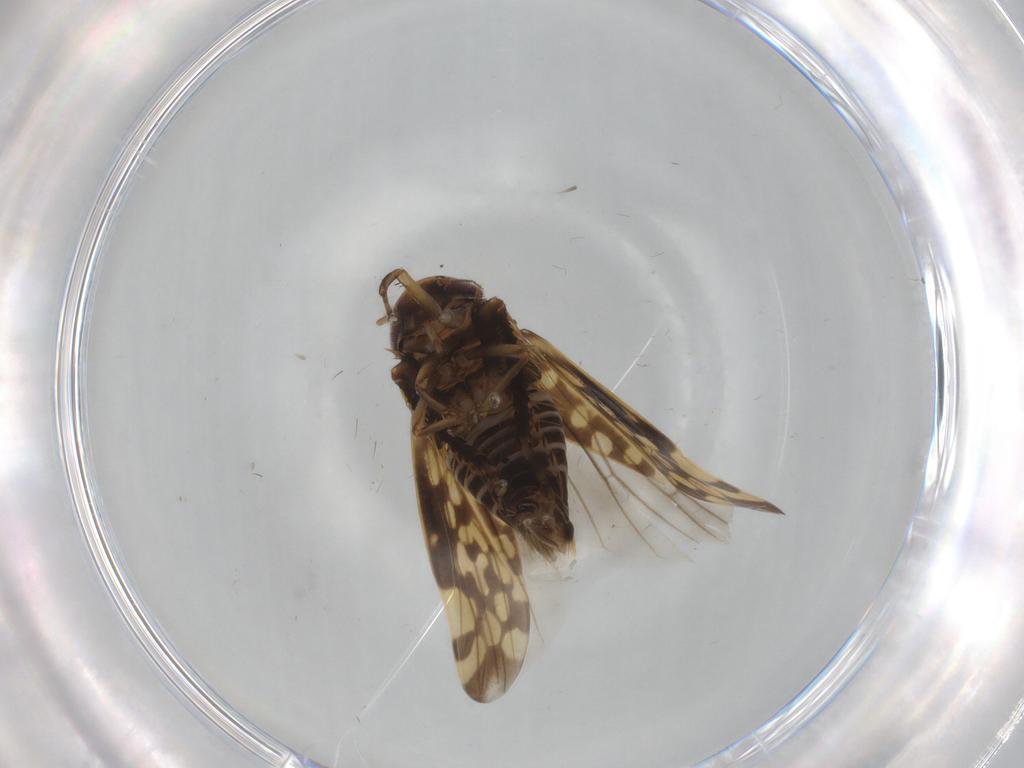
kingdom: Animalia
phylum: Arthropoda
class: Insecta
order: Hemiptera
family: Cicadellidae
